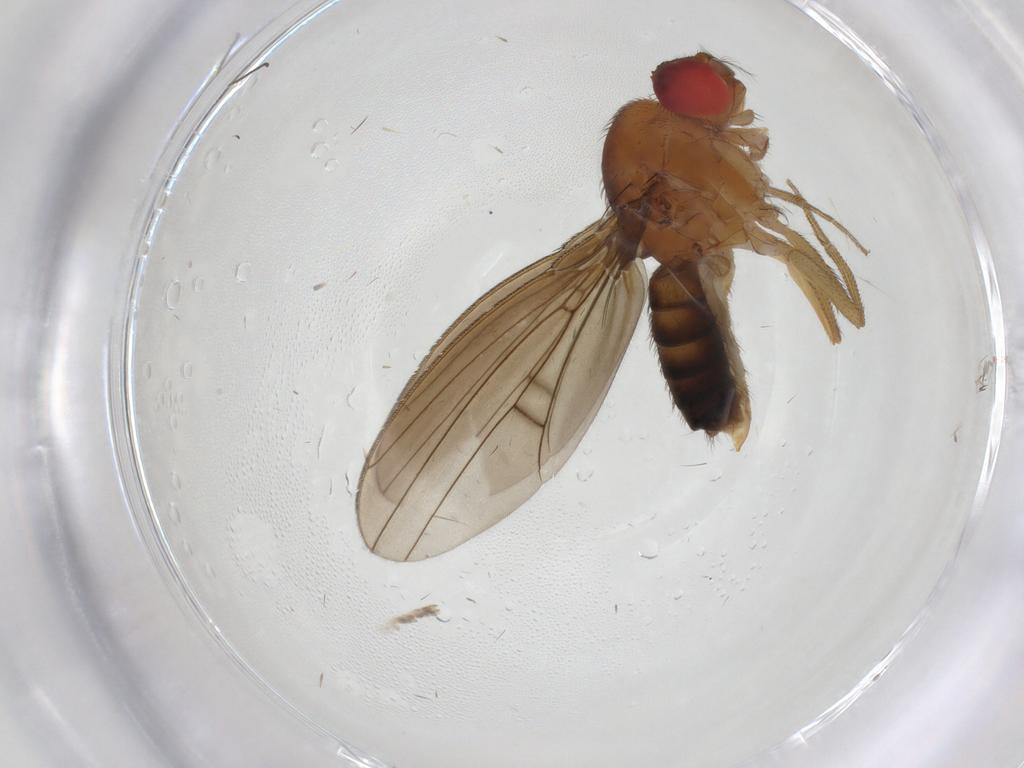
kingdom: Animalia
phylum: Arthropoda
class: Insecta
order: Diptera
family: Drosophilidae
